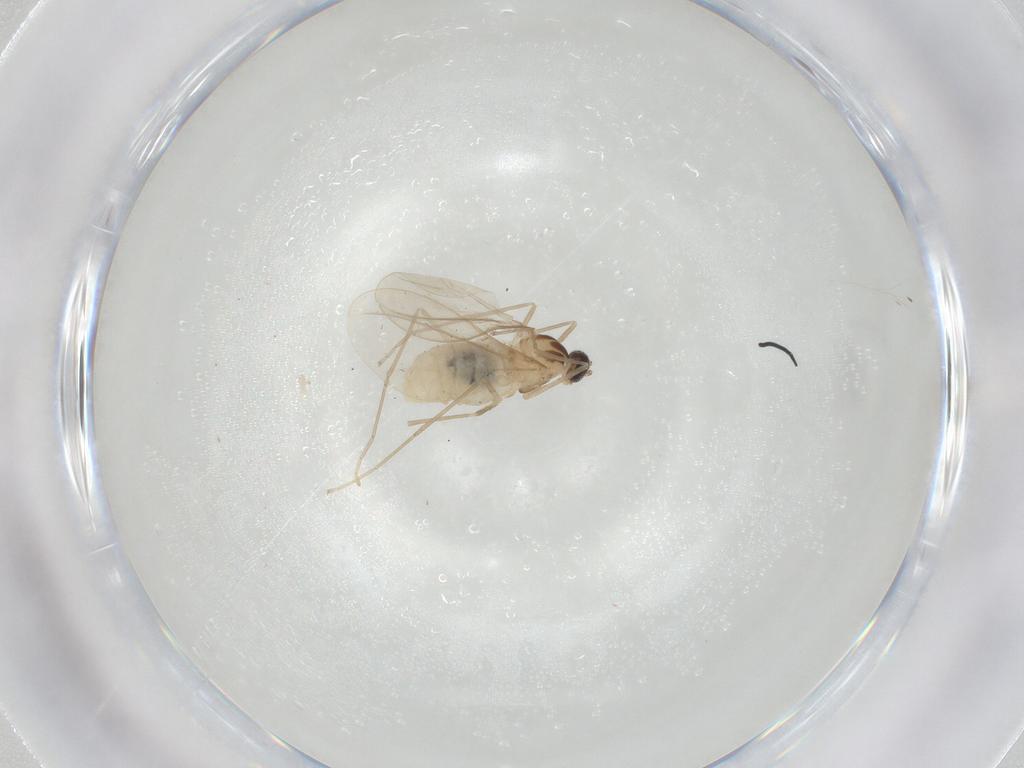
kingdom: Animalia
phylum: Arthropoda
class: Insecta
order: Diptera
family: Cecidomyiidae
